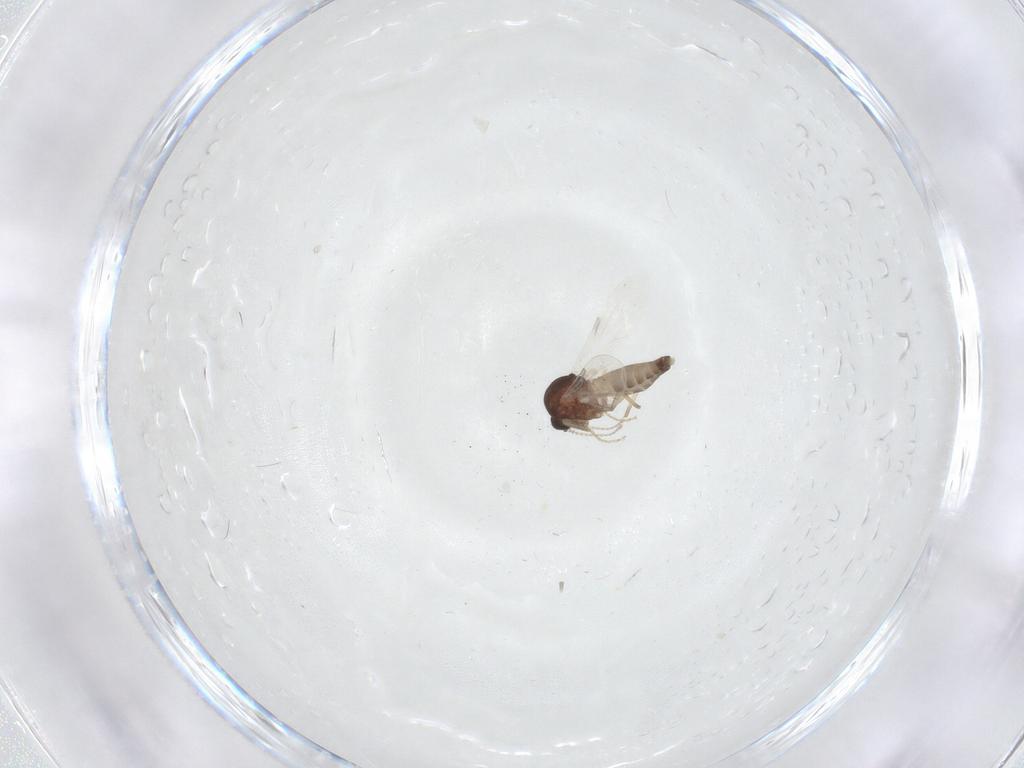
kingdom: Animalia
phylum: Arthropoda
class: Insecta
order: Diptera
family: Ceratopogonidae
